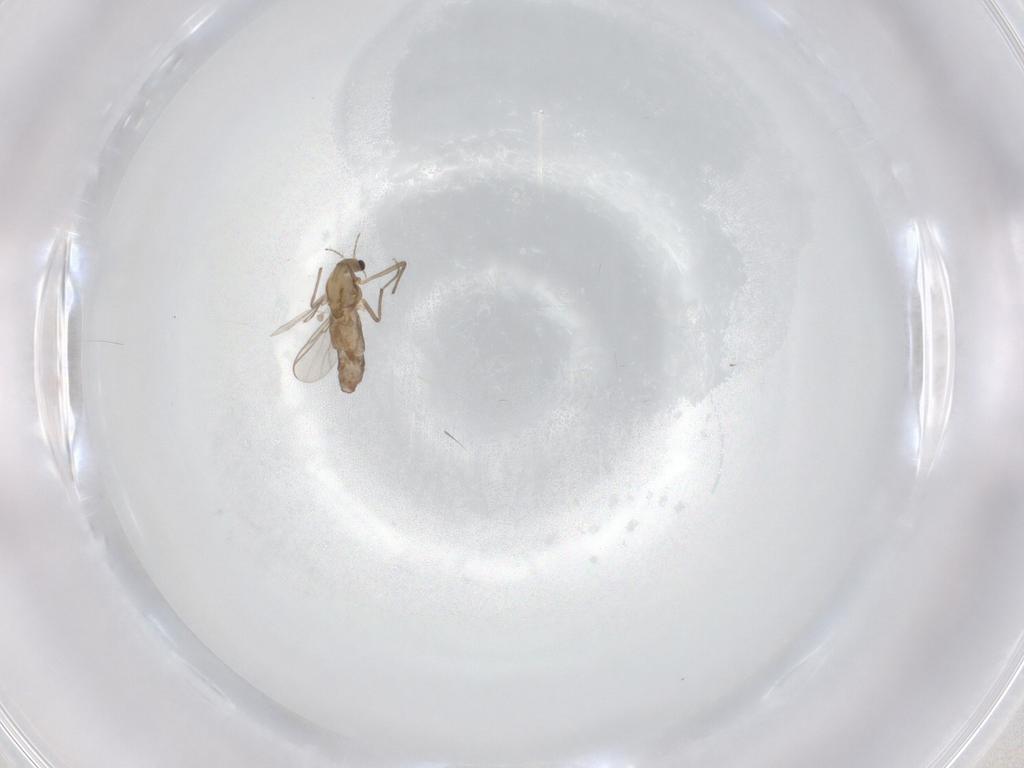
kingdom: Animalia
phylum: Arthropoda
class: Insecta
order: Diptera
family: Chironomidae
